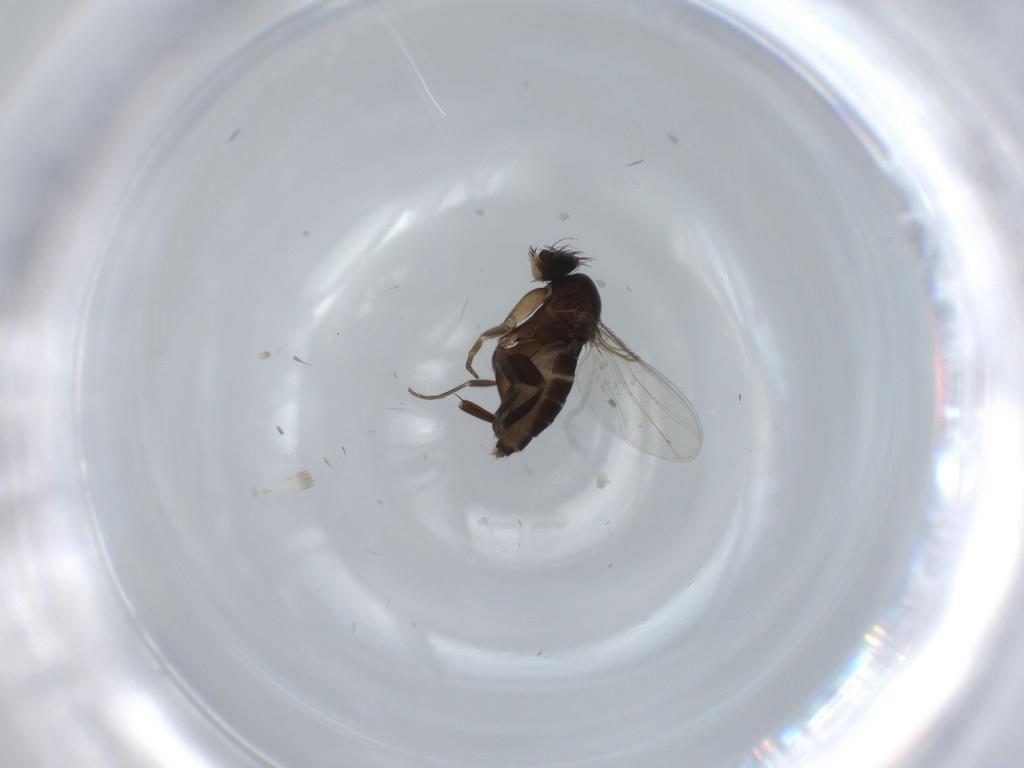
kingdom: Animalia
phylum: Arthropoda
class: Insecta
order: Diptera
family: Phoridae
